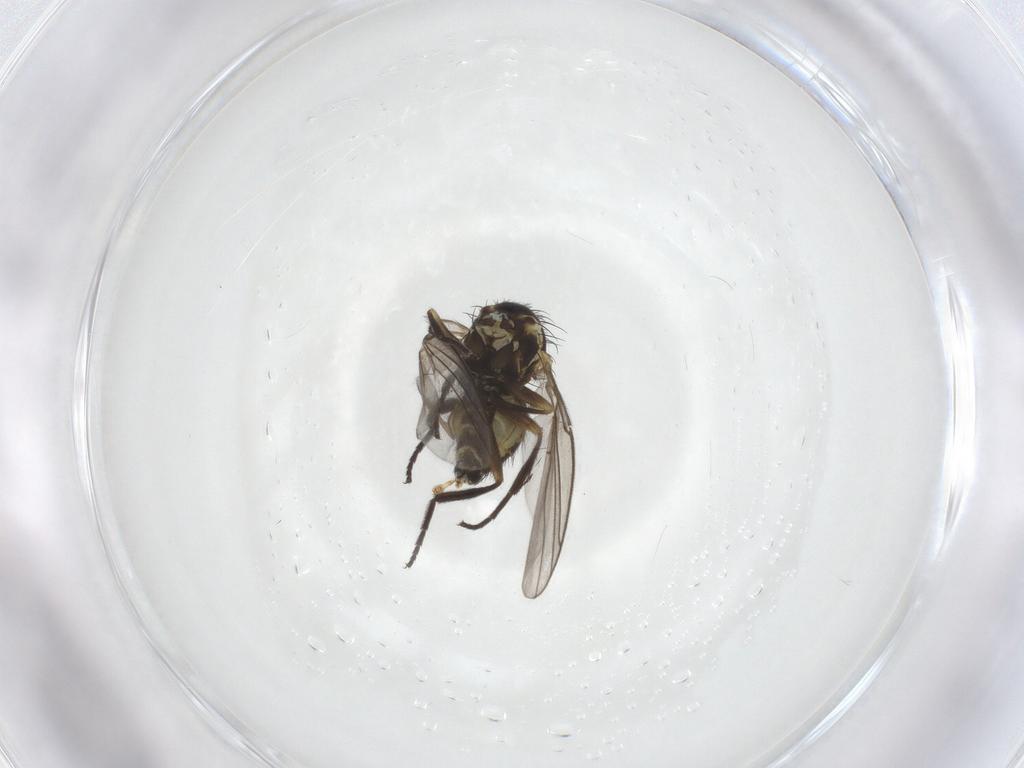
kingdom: Animalia
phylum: Arthropoda
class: Insecta
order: Diptera
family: Agromyzidae
